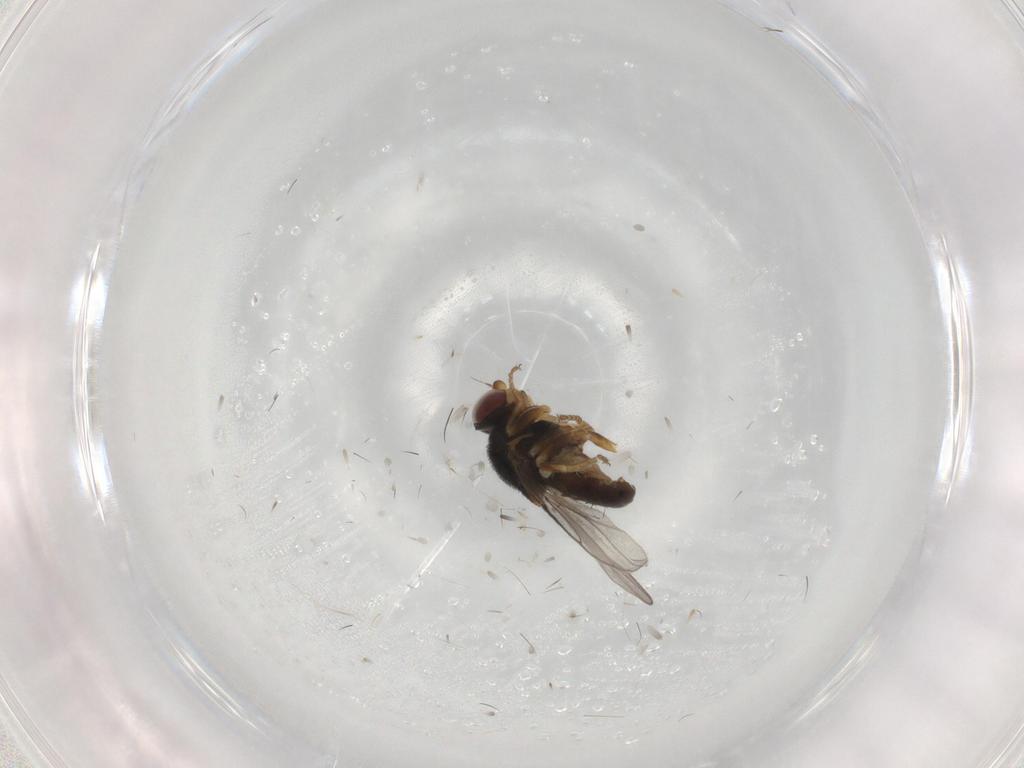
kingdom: Animalia
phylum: Arthropoda
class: Insecta
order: Diptera
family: Chloropidae
